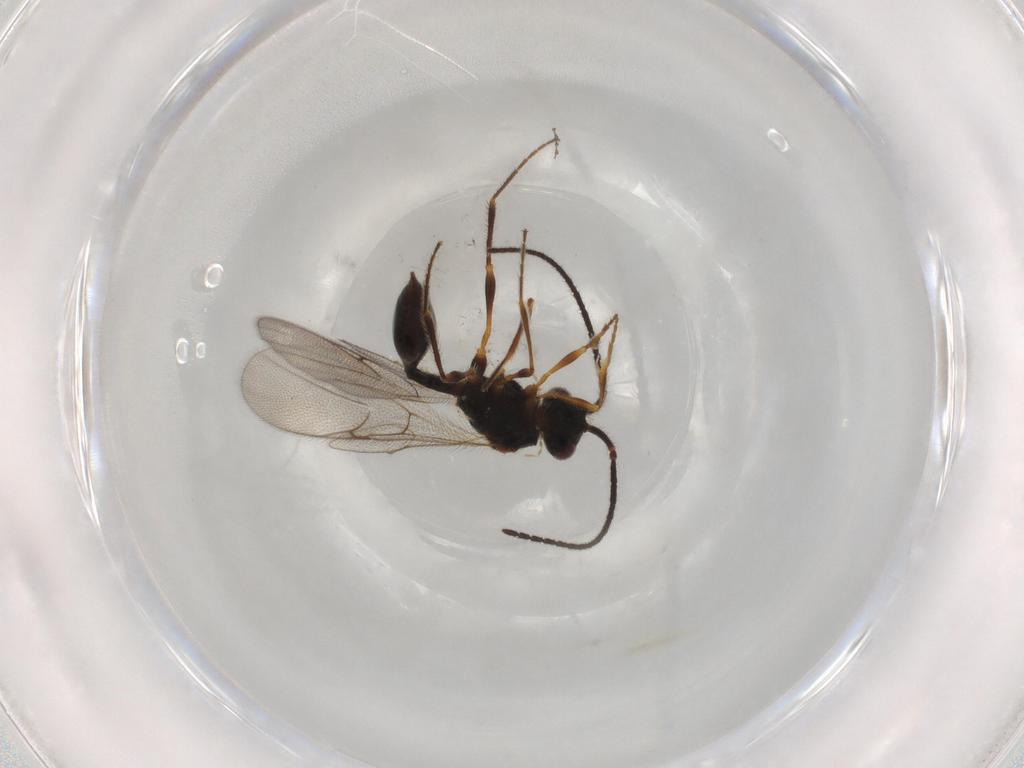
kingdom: Animalia
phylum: Arthropoda
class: Insecta
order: Hymenoptera
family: Diapriidae
